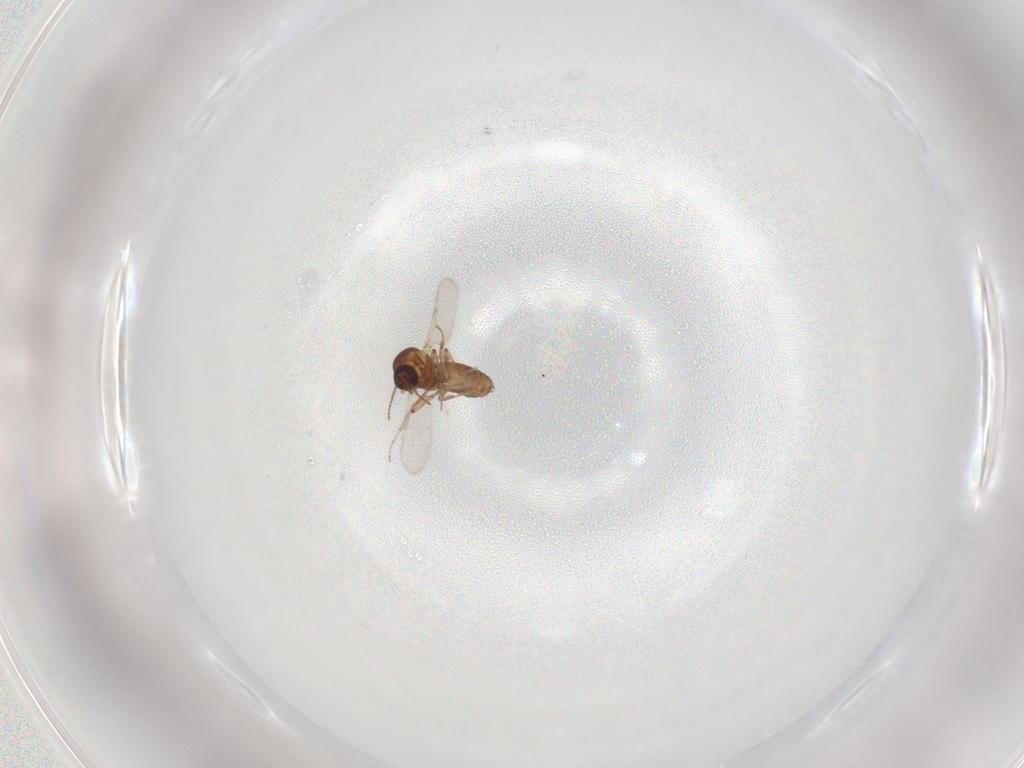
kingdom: Animalia
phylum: Arthropoda
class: Insecta
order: Diptera
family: Ceratopogonidae
